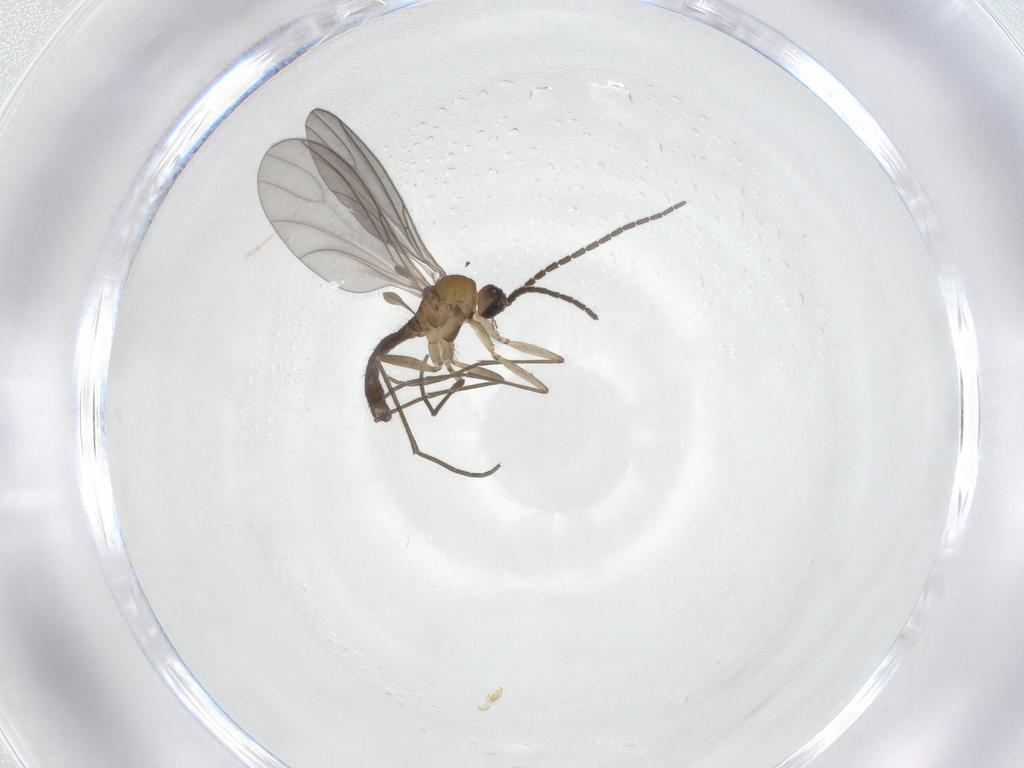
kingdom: Animalia
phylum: Arthropoda
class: Insecta
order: Diptera
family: Sciaridae
